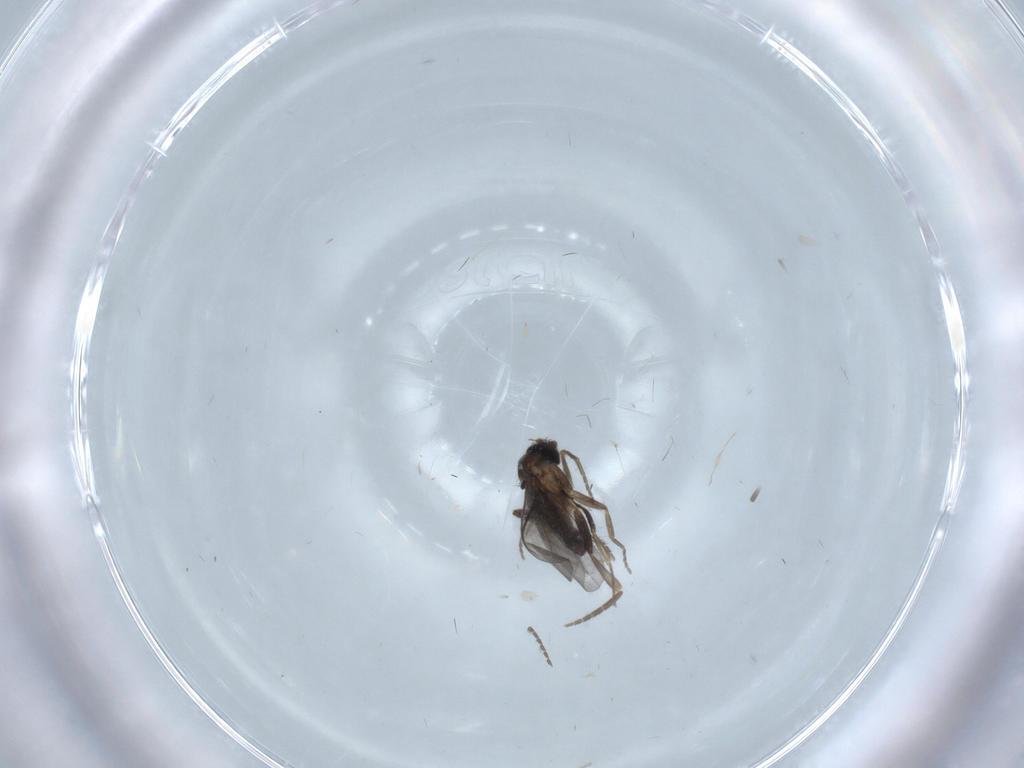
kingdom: Animalia
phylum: Arthropoda
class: Insecta
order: Diptera
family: Phoridae
